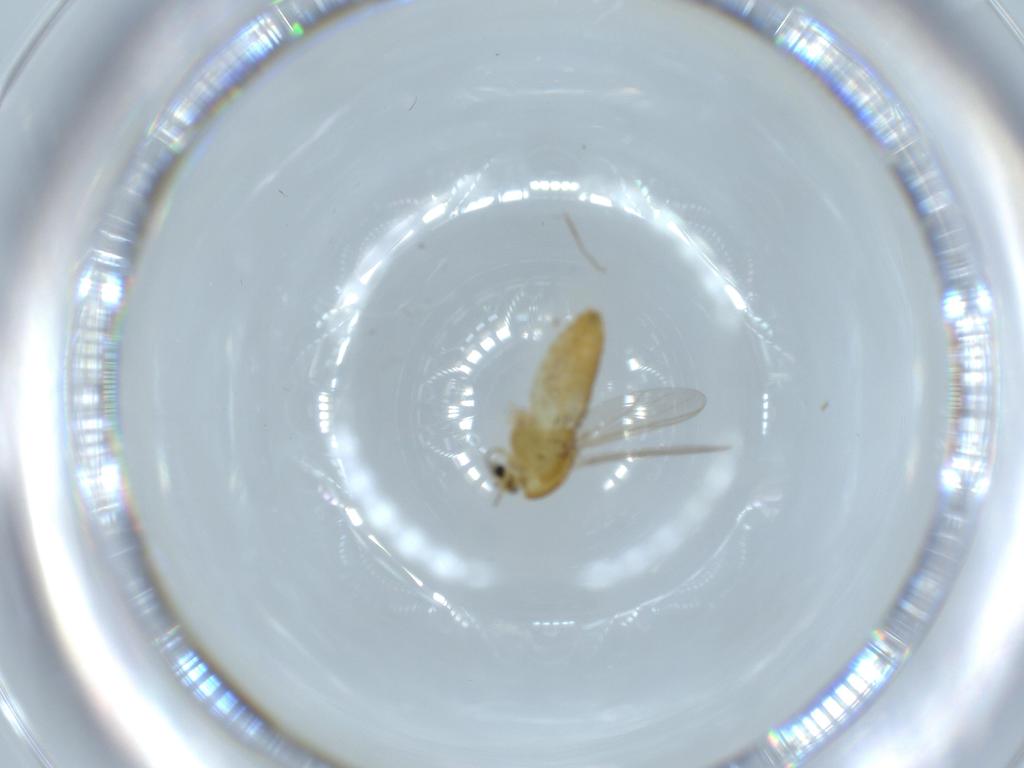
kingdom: Animalia
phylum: Arthropoda
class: Insecta
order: Diptera
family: Chironomidae
